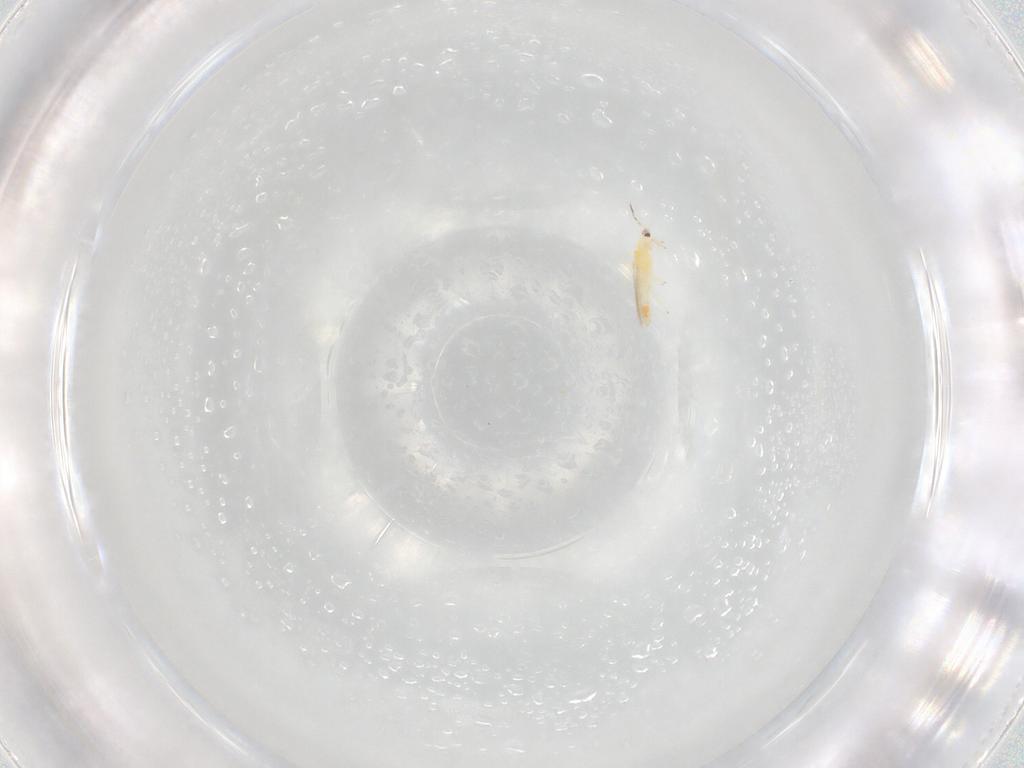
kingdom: Animalia
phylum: Arthropoda
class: Insecta
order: Thysanoptera
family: Thripidae
